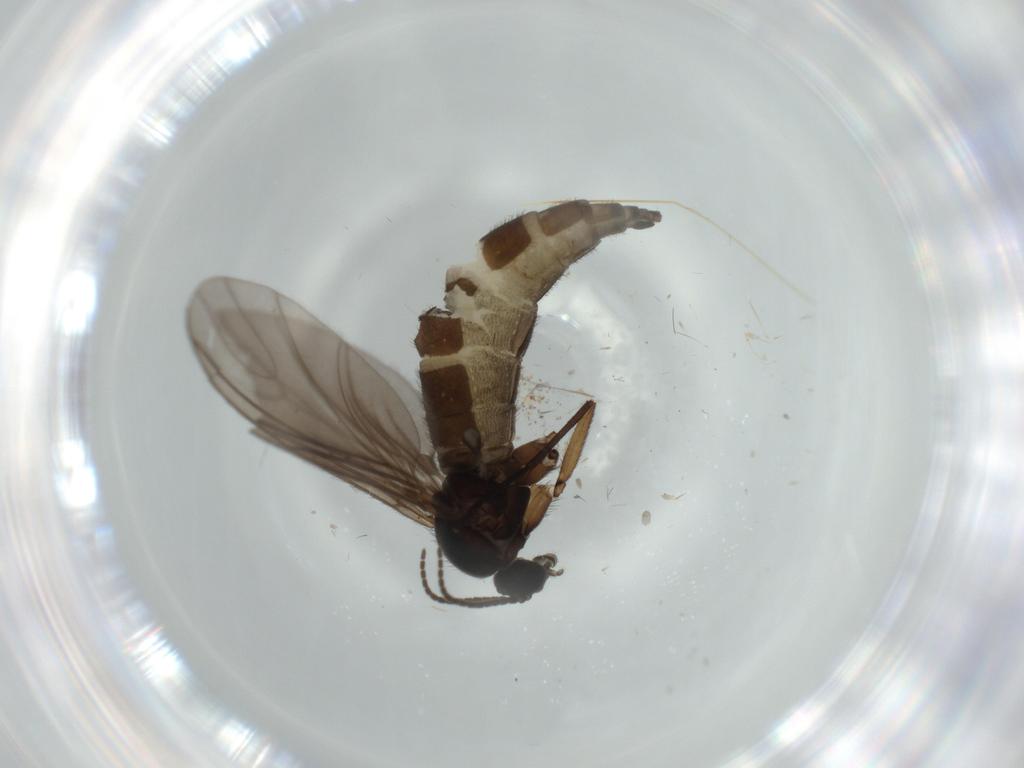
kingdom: Animalia
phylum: Arthropoda
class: Insecta
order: Diptera
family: Sciaridae
